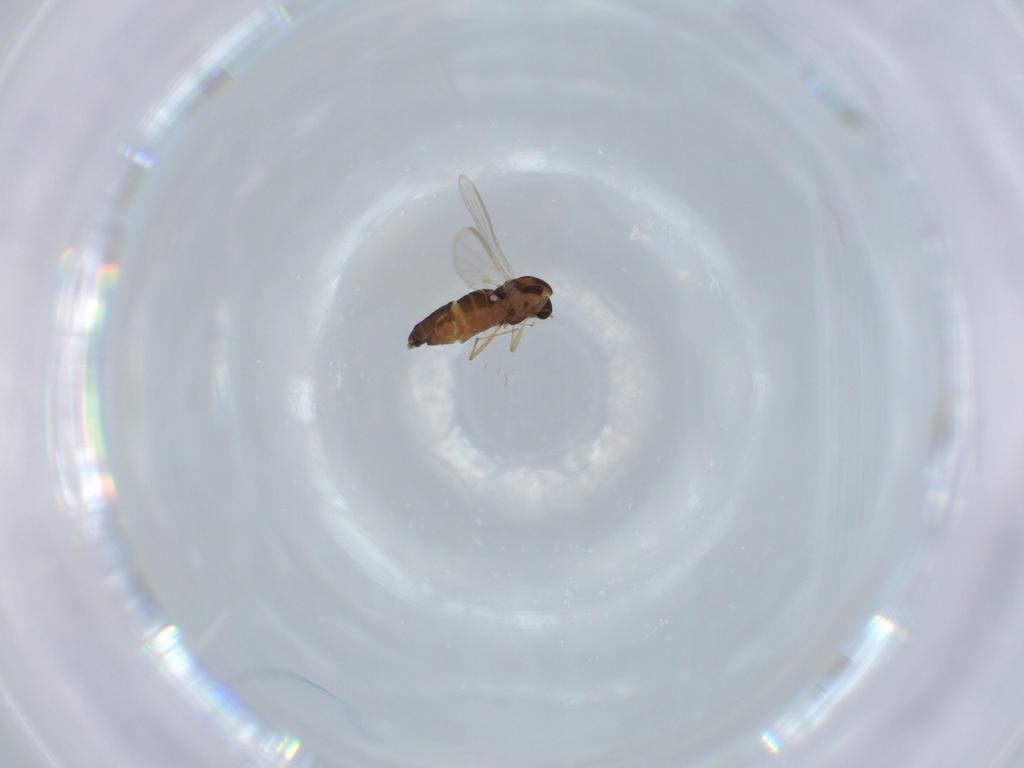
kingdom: Animalia
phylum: Arthropoda
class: Insecta
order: Diptera
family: Chironomidae
